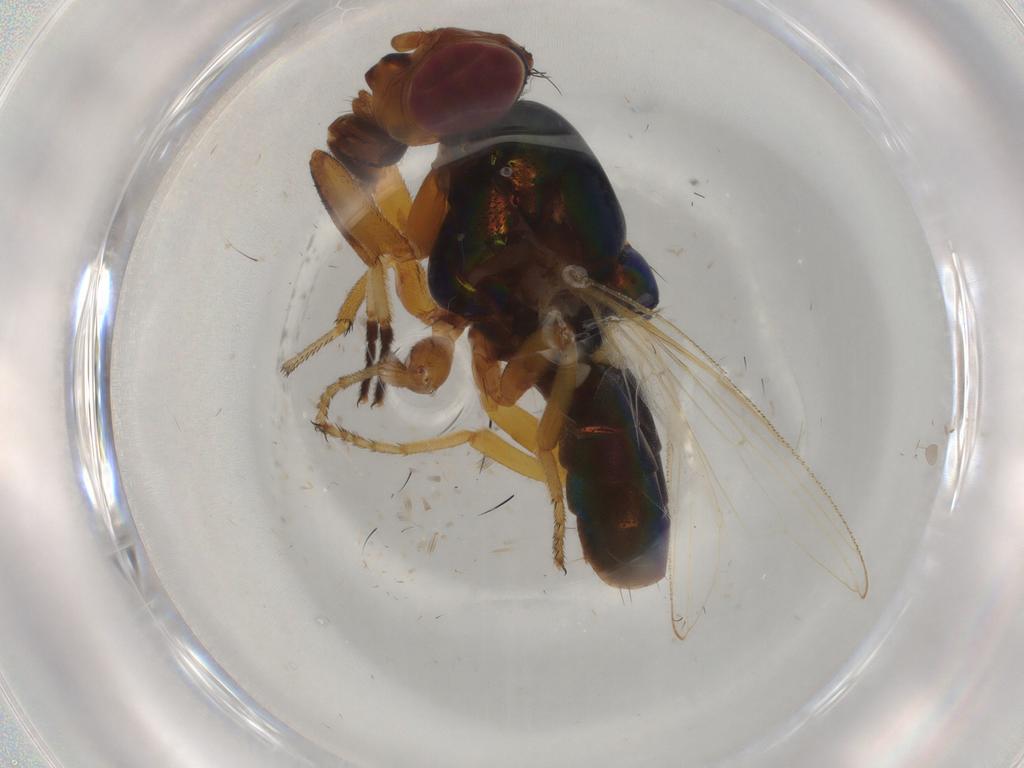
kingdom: Animalia
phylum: Arthropoda
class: Insecta
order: Diptera
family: Ulidiidae
